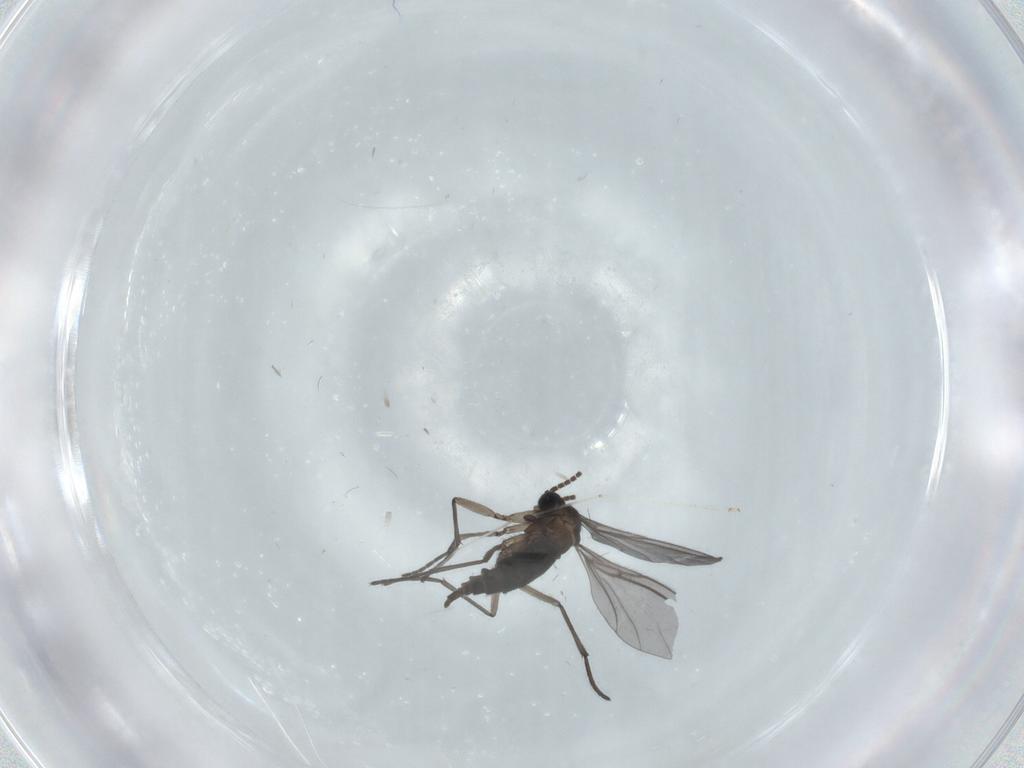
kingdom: Animalia
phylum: Arthropoda
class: Insecta
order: Diptera
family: Cecidomyiidae
